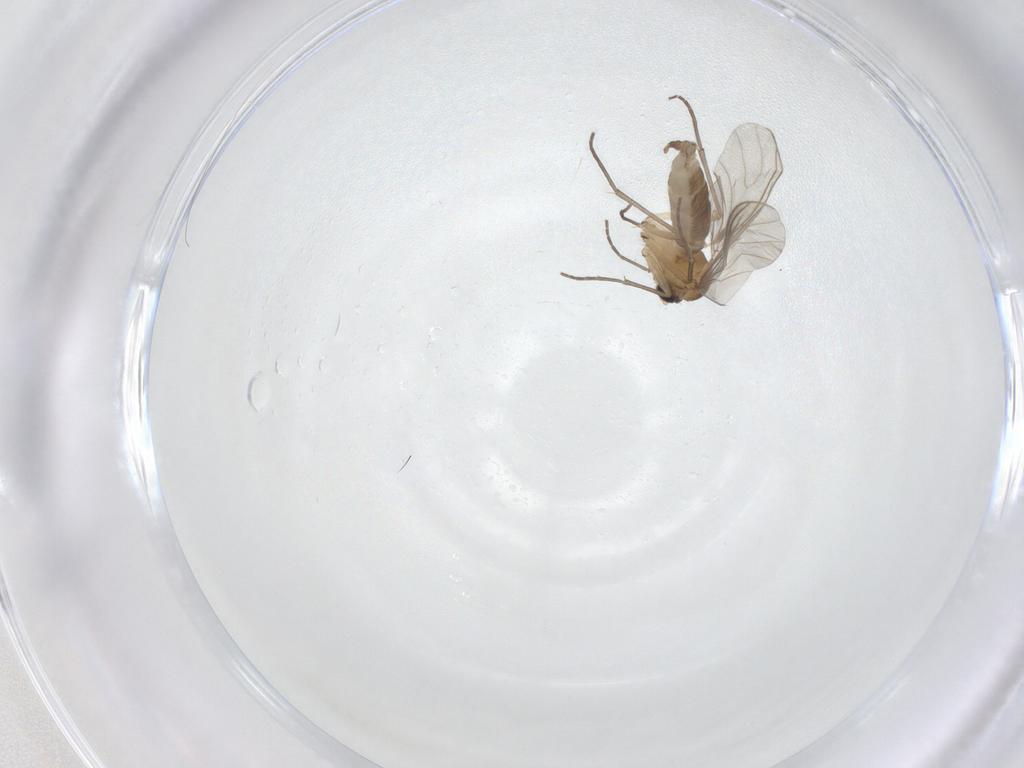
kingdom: Animalia
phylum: Arthropoda
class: Insecta
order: Diptera
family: Sciaridae
